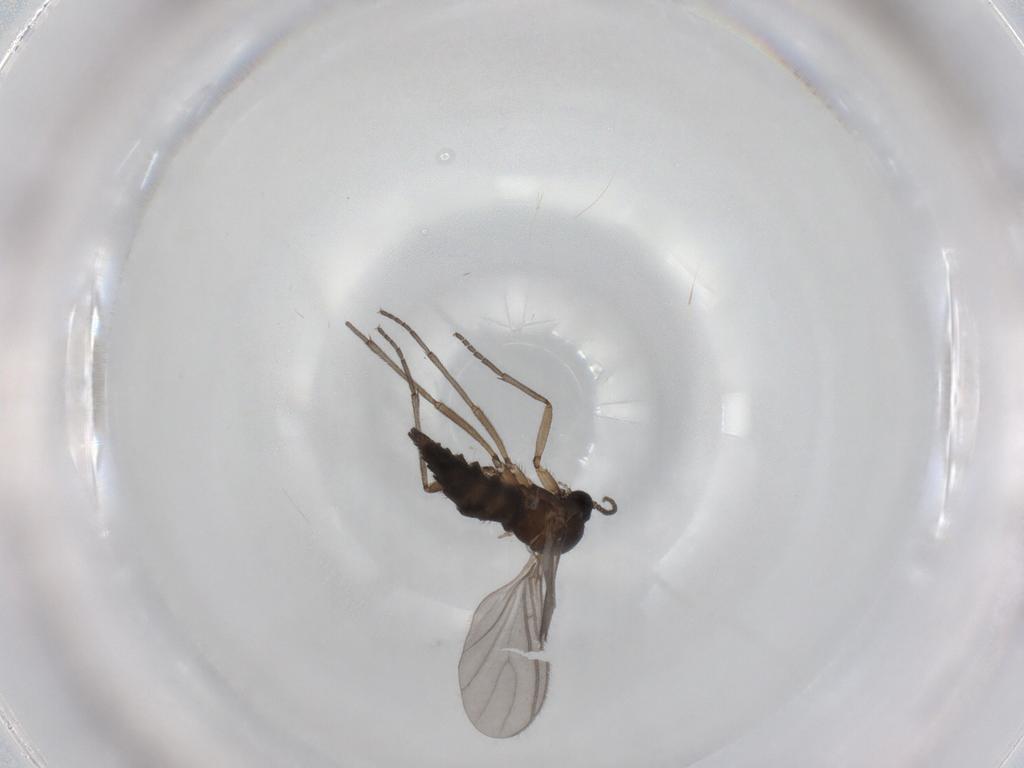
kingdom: Animalia
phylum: Arthropoda
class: Insecta
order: Diptera
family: Sciaridae
